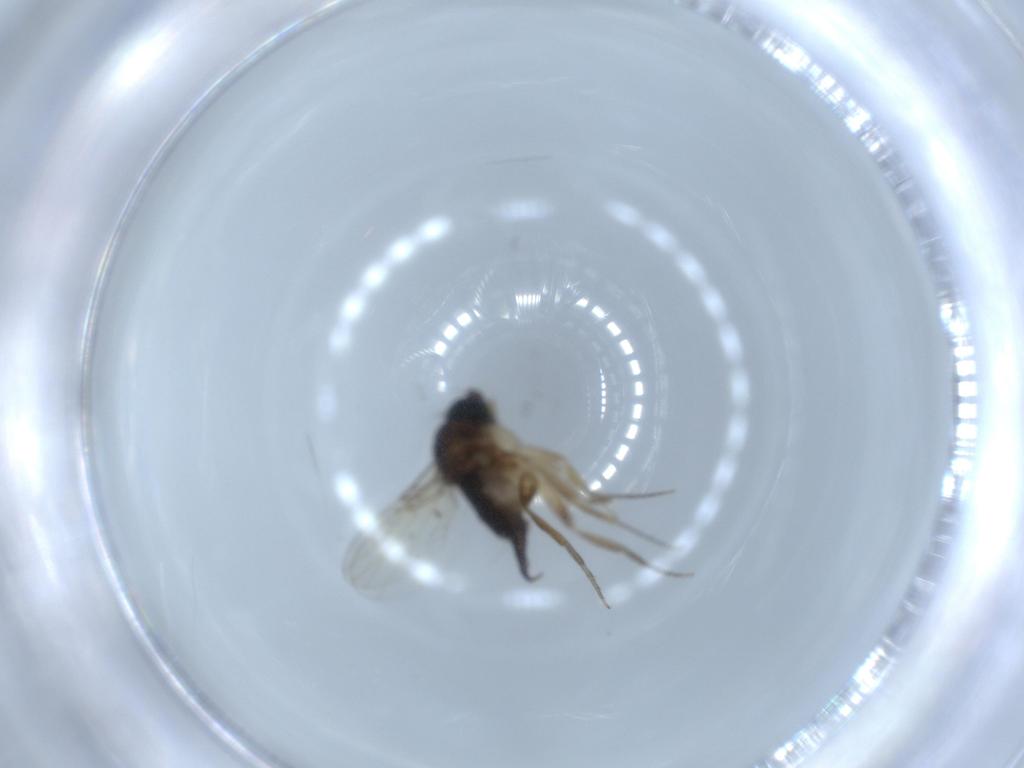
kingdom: Animalia
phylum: Arthropoda
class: Insecta
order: Diptera
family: Phoridae
